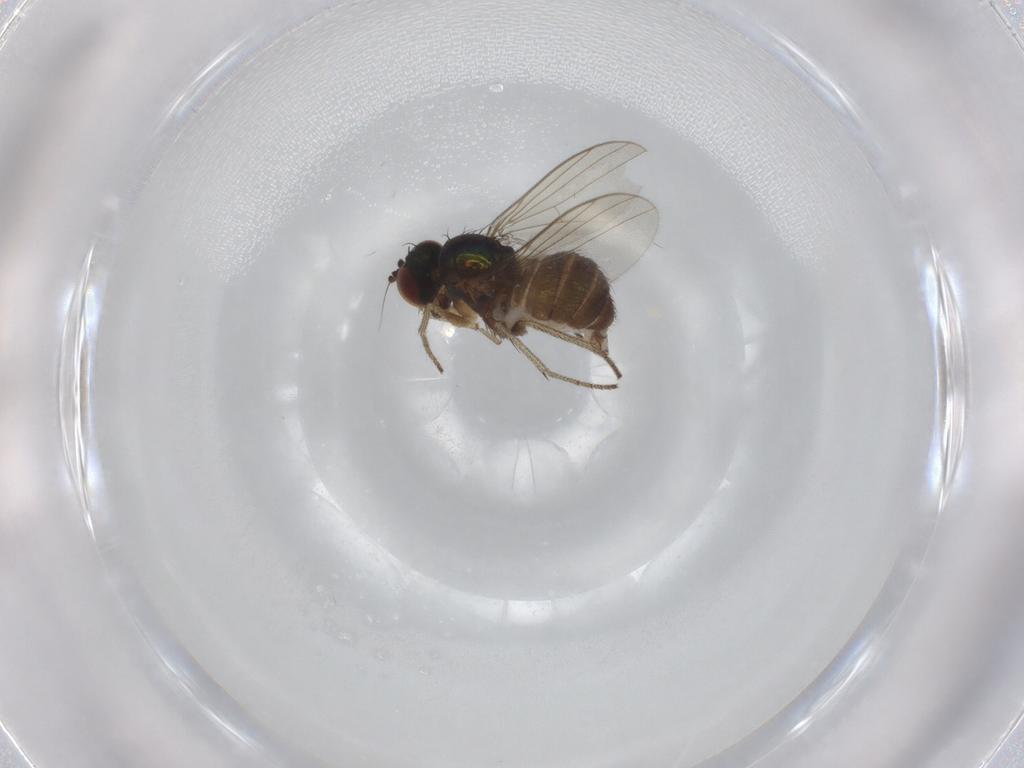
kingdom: Animalia
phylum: Arthropoda
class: Insecta
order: Diptera
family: Dolichopodidae
